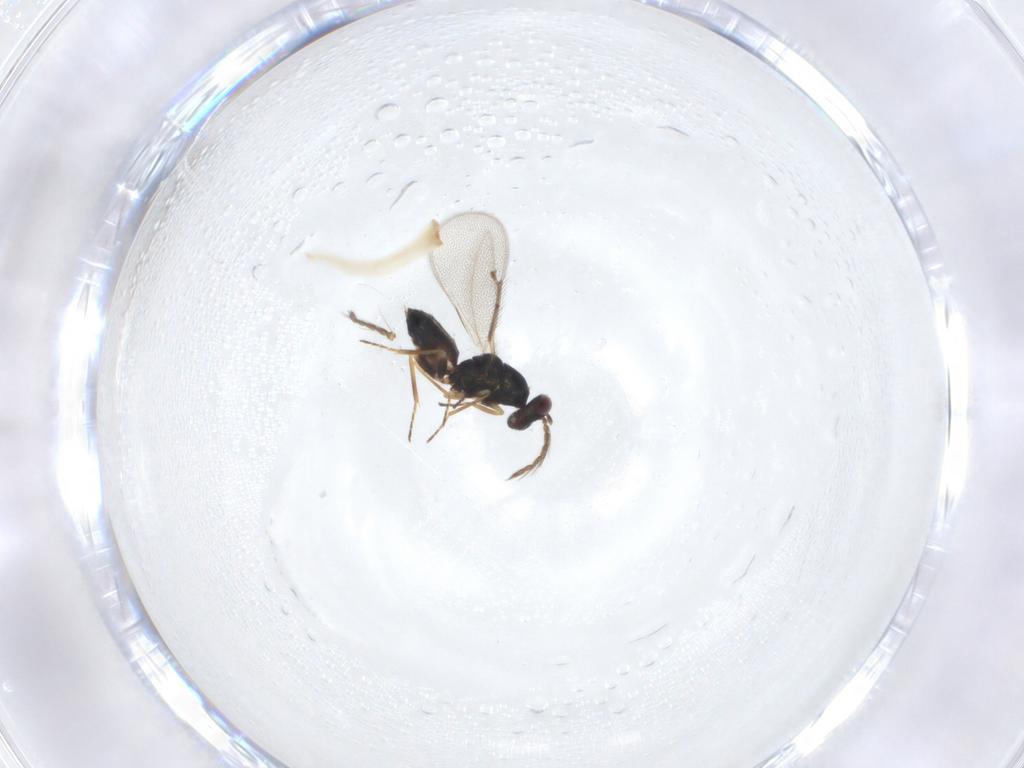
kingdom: Animalia
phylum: Arthropoda
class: Insecta
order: Hymenoptera
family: Eulophidae
